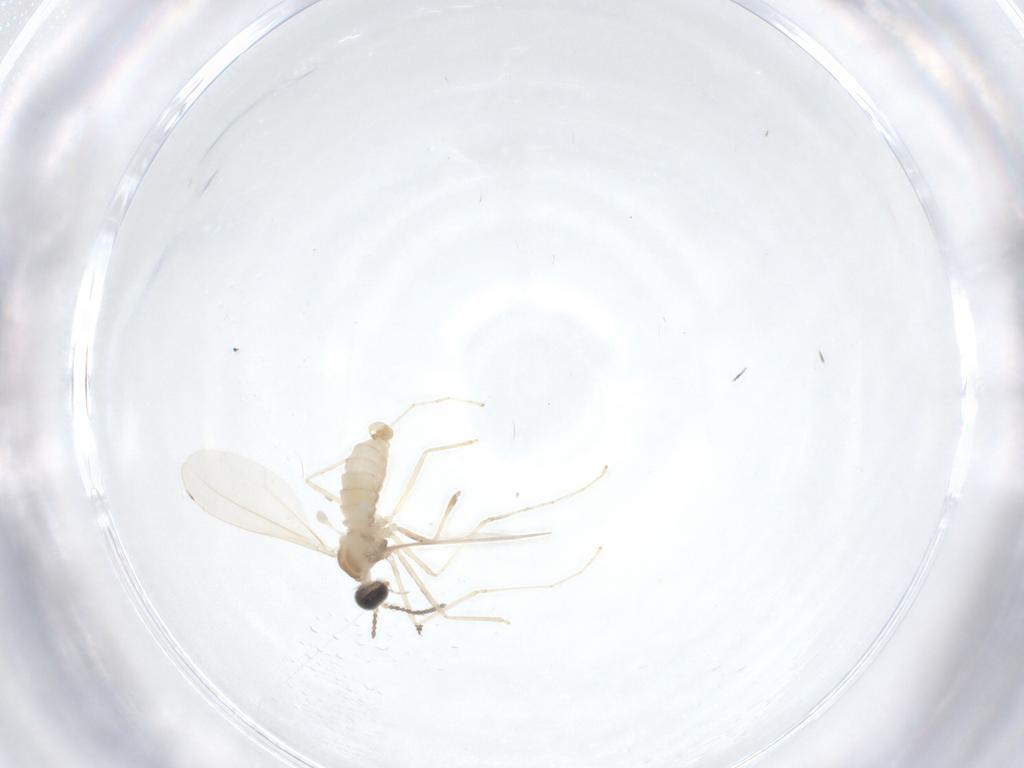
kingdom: Animalia
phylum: Arthropoda
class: Insecta
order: Diptera
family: Cecidomyiidae
